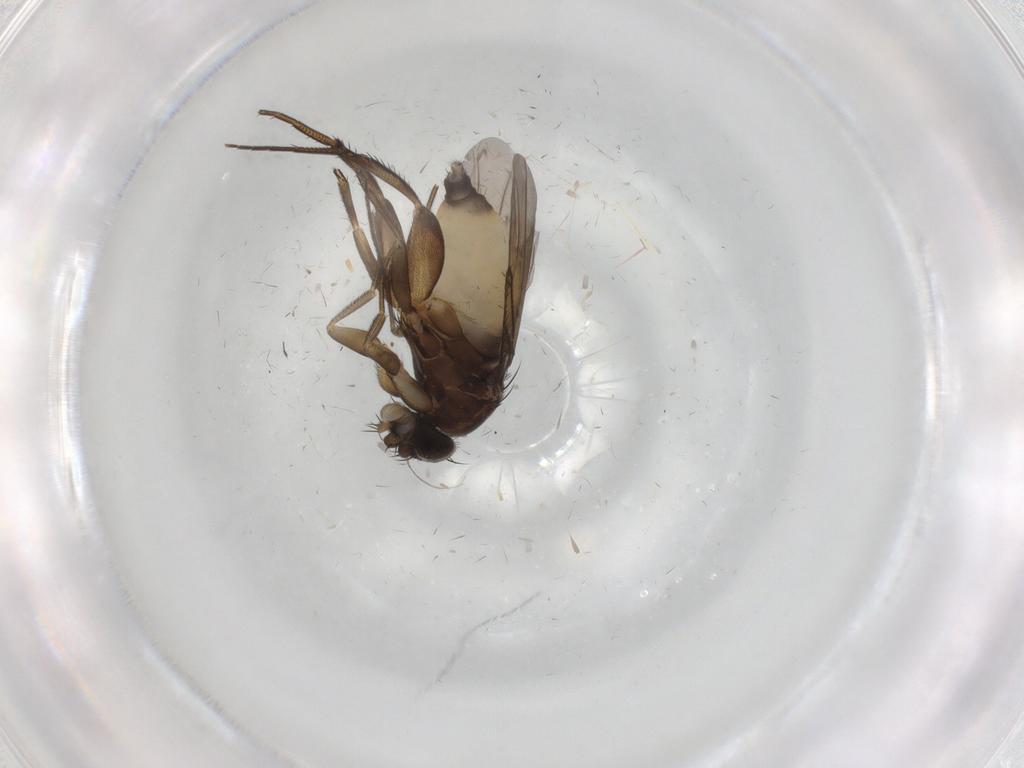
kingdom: Animalia
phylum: Arthropoda
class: Insecta
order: Diptera
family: Phoridae
